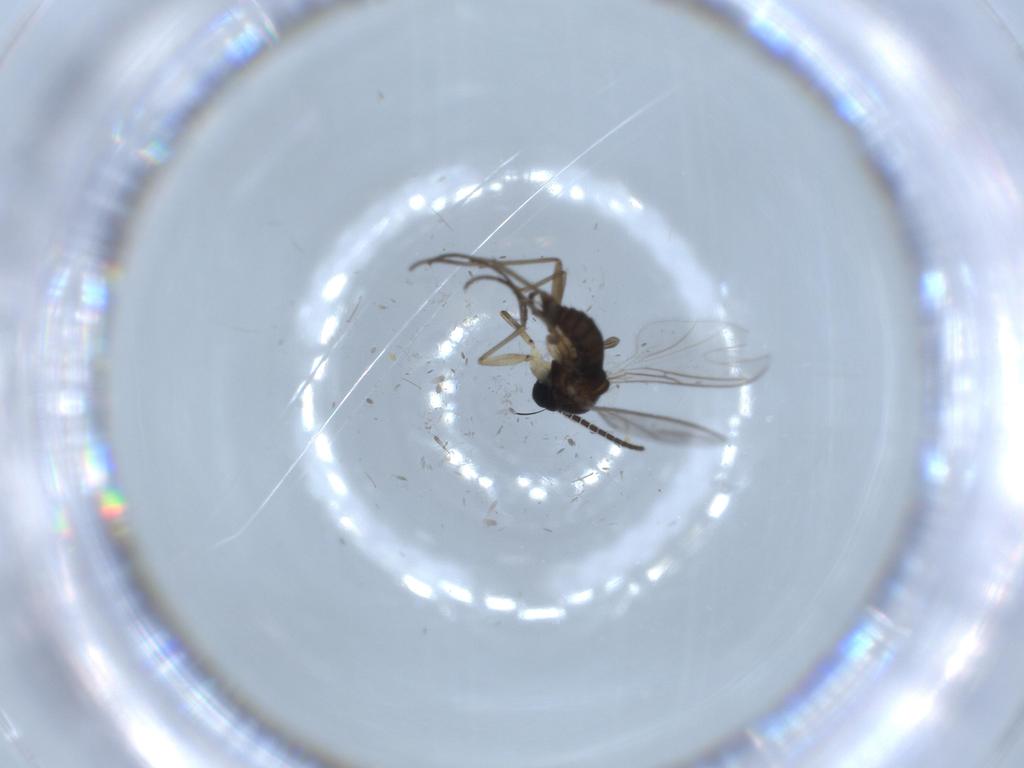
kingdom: Animalia
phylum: Arthropoda
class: Insecta
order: Diptera
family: Sciaridae
